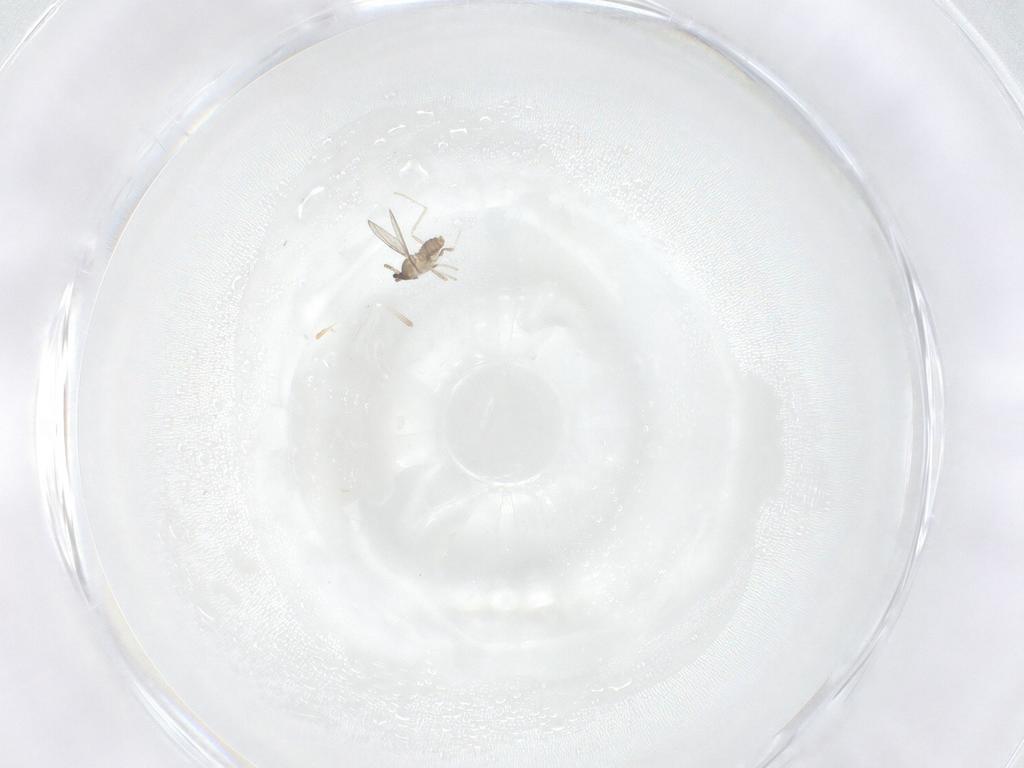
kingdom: Animalia
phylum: Arthropoda
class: Insecta
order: Diptera
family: Cecidomyiidae
